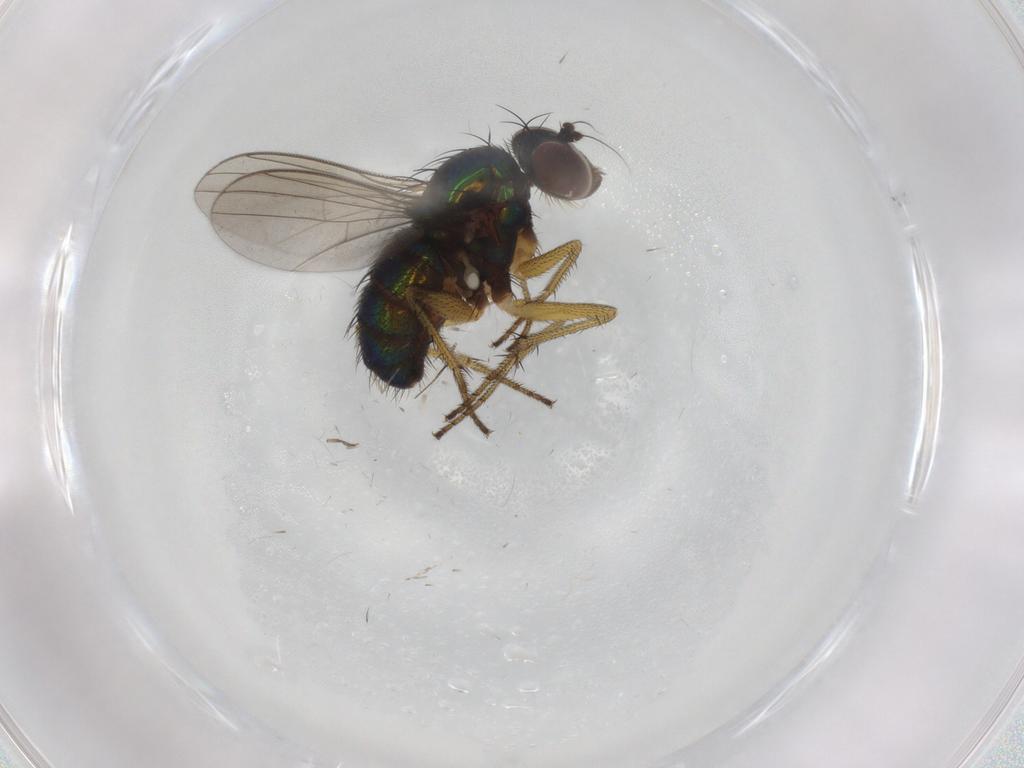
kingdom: Animalia
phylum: Arthropoda
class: Insecta
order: Diptera
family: Dolichopodidae
